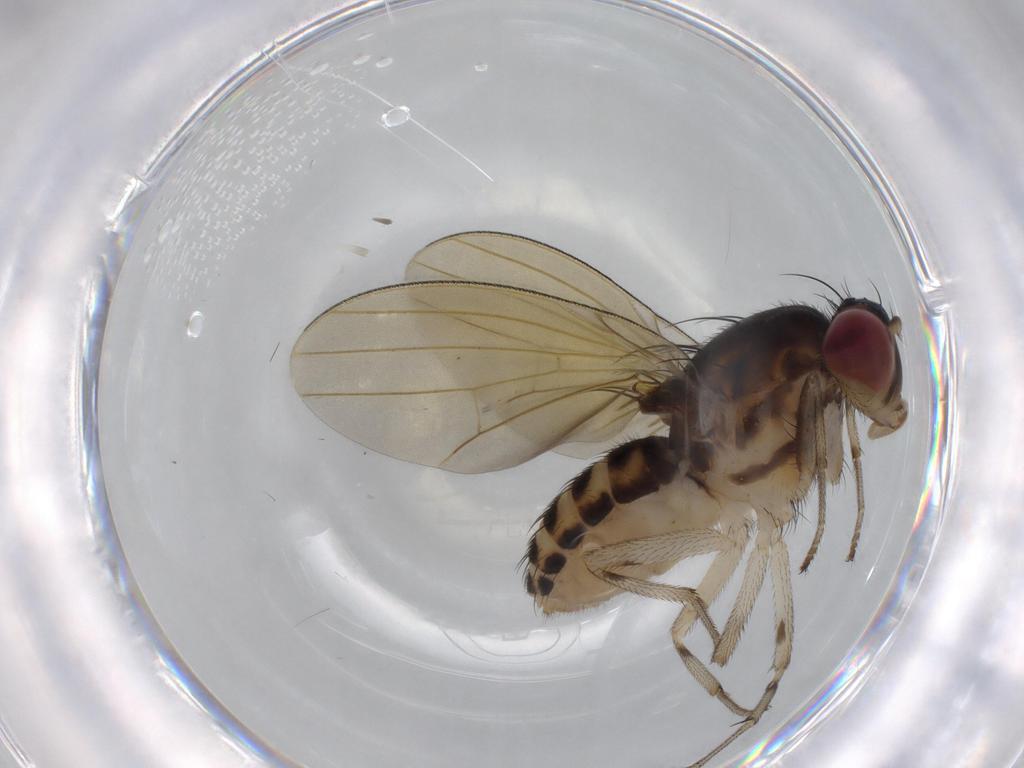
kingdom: Animalia
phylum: Arthropoda
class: Insecta
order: Diptera
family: Lauxaniidae
